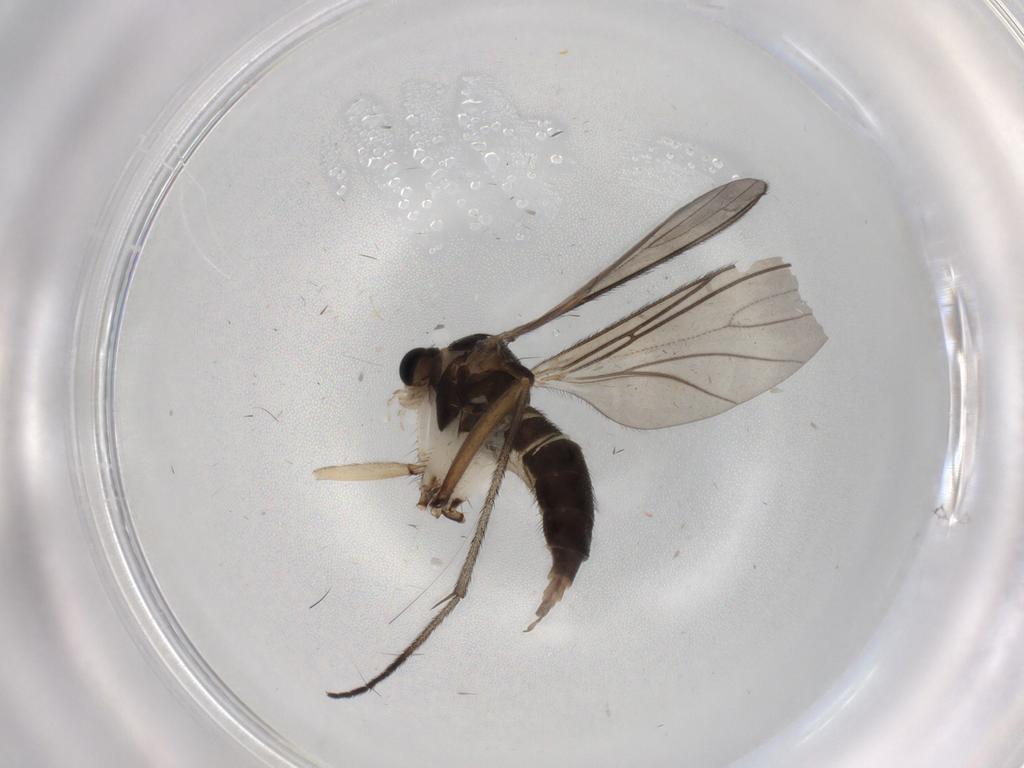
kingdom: Animalia
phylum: Arthropoda
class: Insecta
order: Diptera
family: Sciaridae
